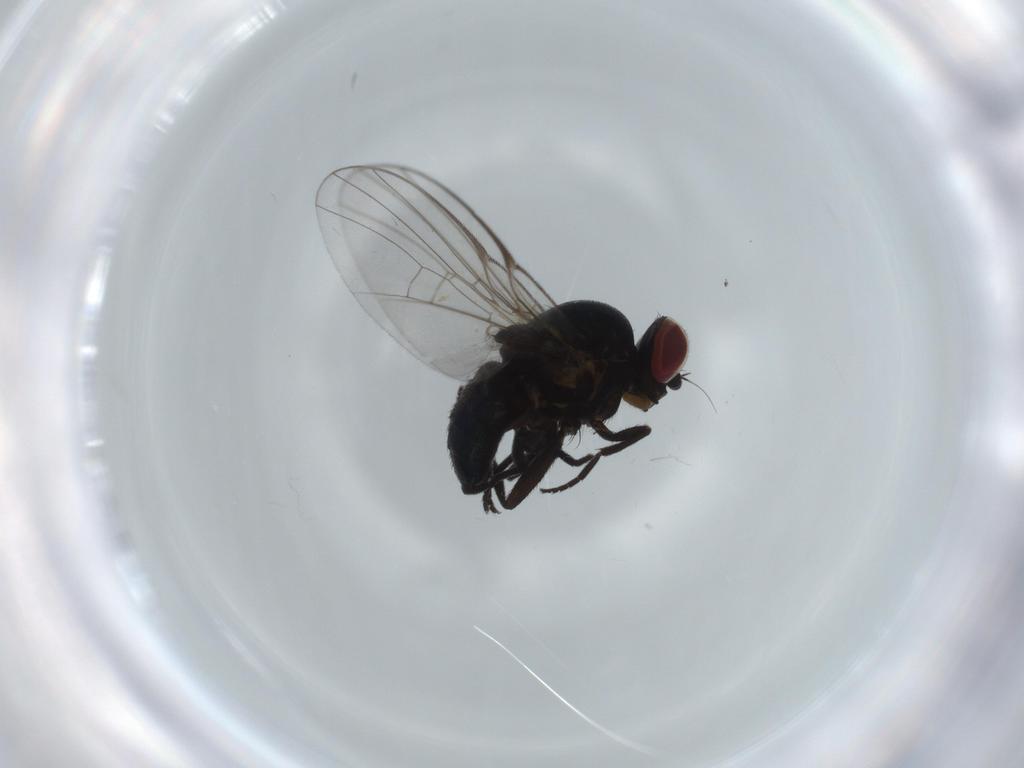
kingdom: Animalia
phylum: Arthropoda
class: Insecta
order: Diptera
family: Agromyzidae
